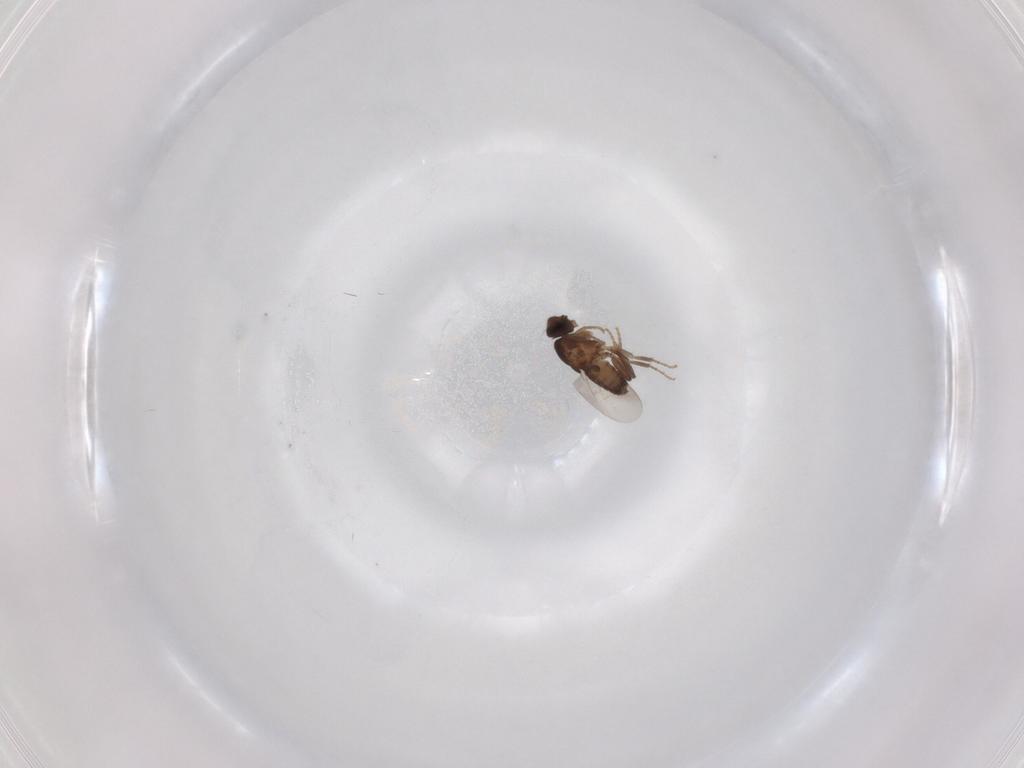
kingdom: Animalia
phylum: Arthropoda
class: Insecta
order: Diptera
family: Sphaeroceridae
